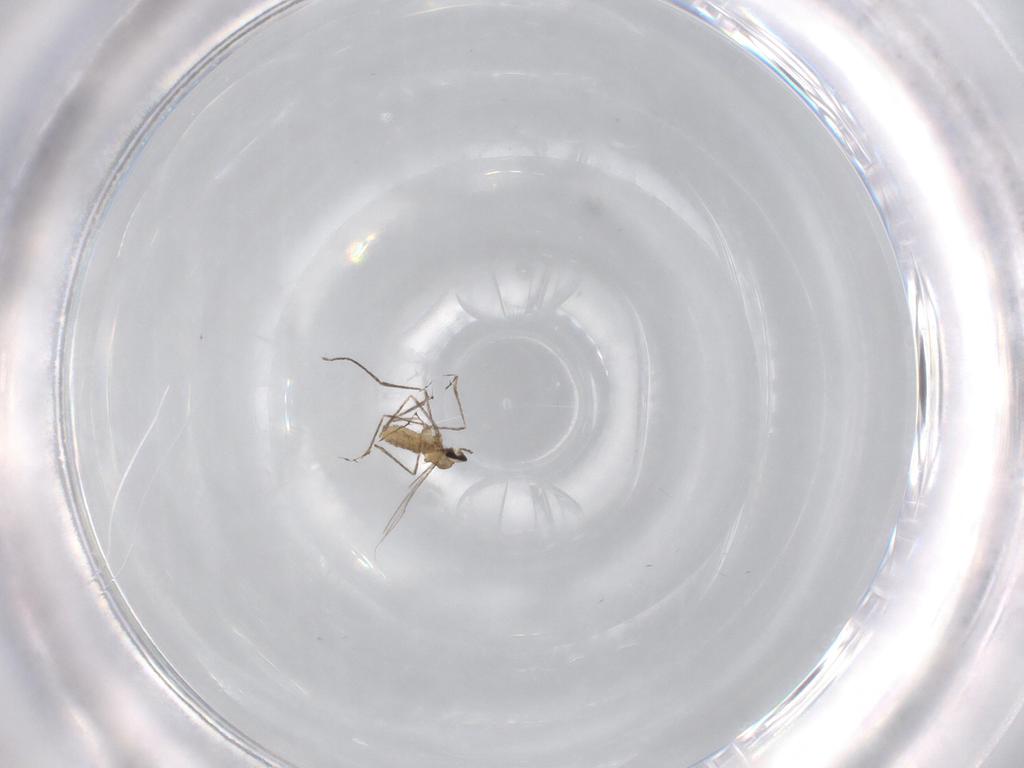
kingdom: Animalia
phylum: Arthropoda
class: Insecta
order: Diptera
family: Cecidomyiidae
